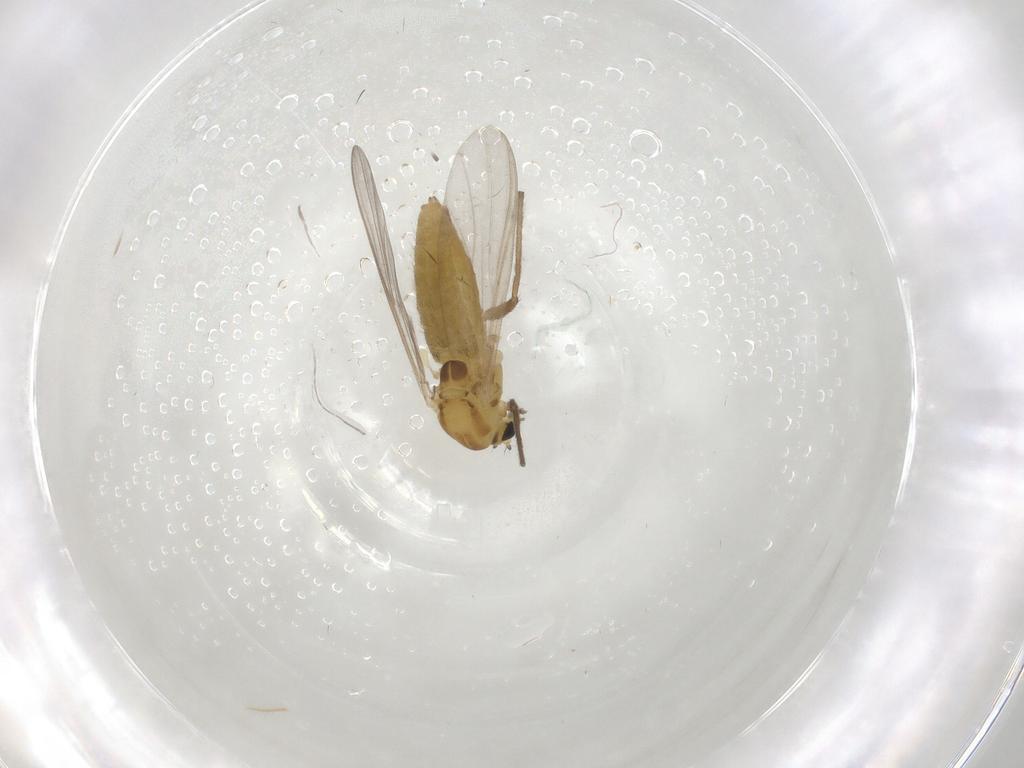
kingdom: Animalia
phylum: Arthropoda
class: Insecta
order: Diptera
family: Chironomidae
